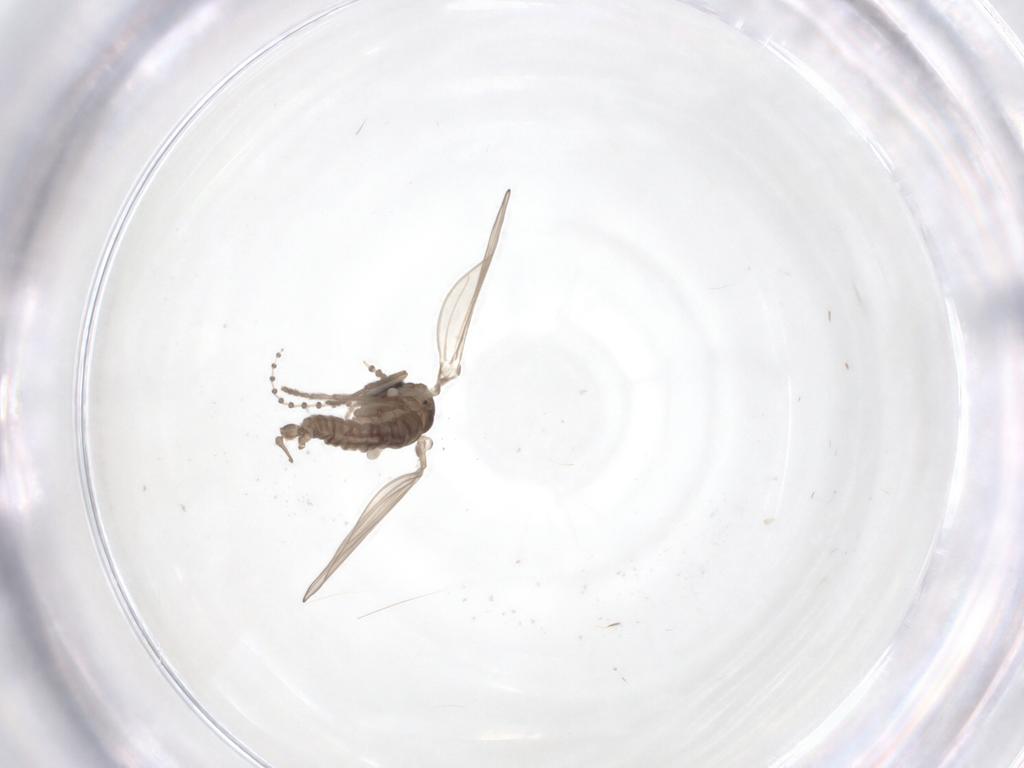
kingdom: Animalia
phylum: Arthropoda
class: Insecta
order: Diptera
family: Psychodidae
